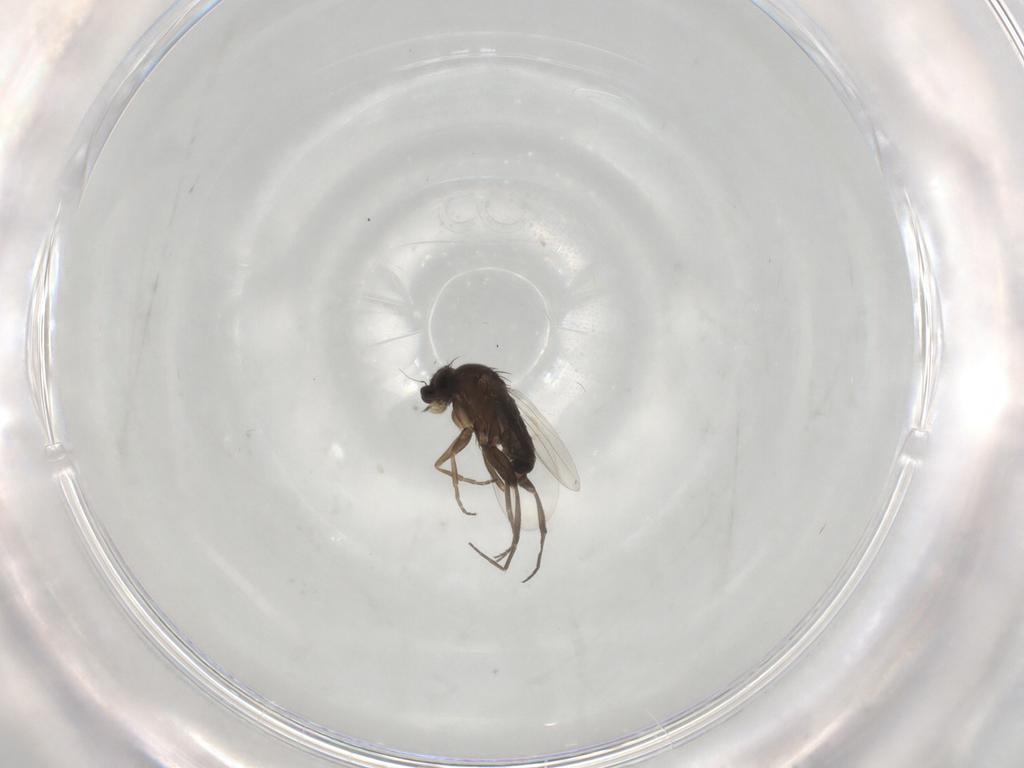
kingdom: Animalia
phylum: Arthropoda
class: Insecta
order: Diptera
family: Phoridae
